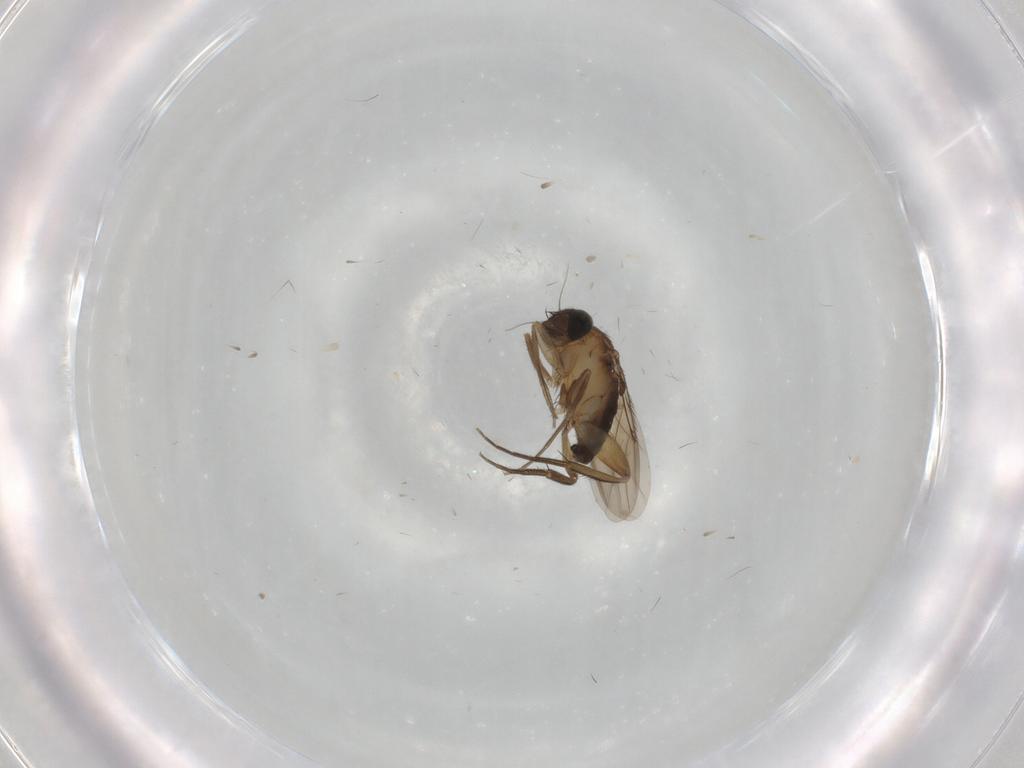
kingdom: Animalia
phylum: Arthropoda
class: Insecta
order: Diptera
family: Phoridae
